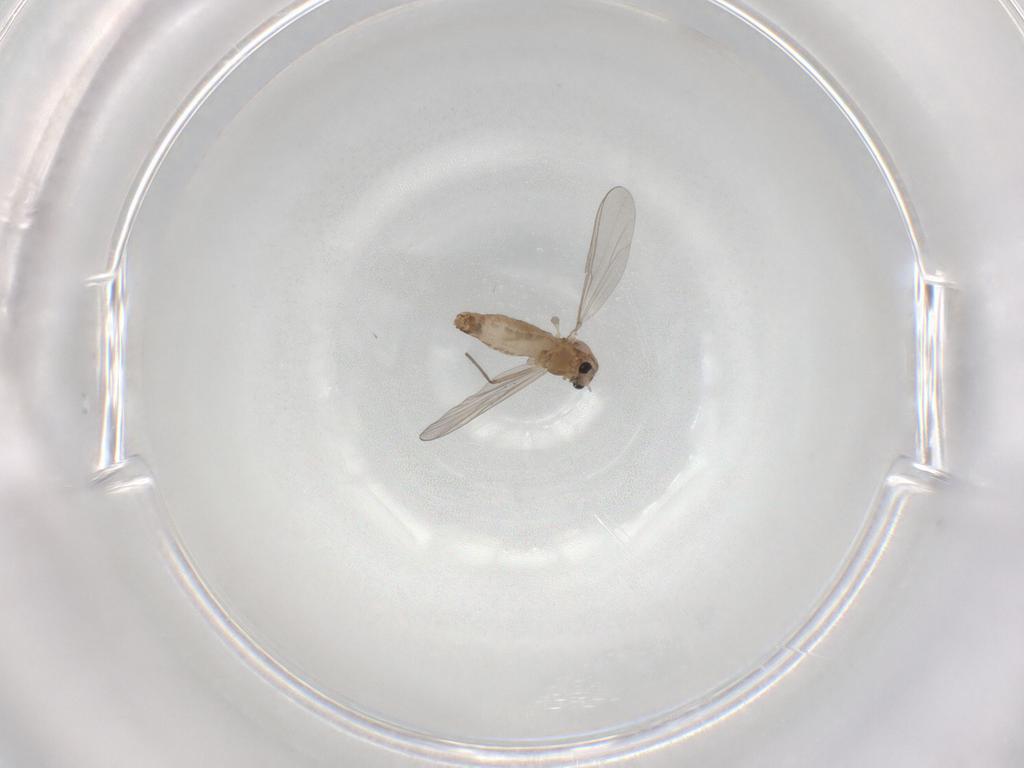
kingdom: Animalia
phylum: Arthropoda
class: Insecta
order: Diptera
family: Chironomidae
